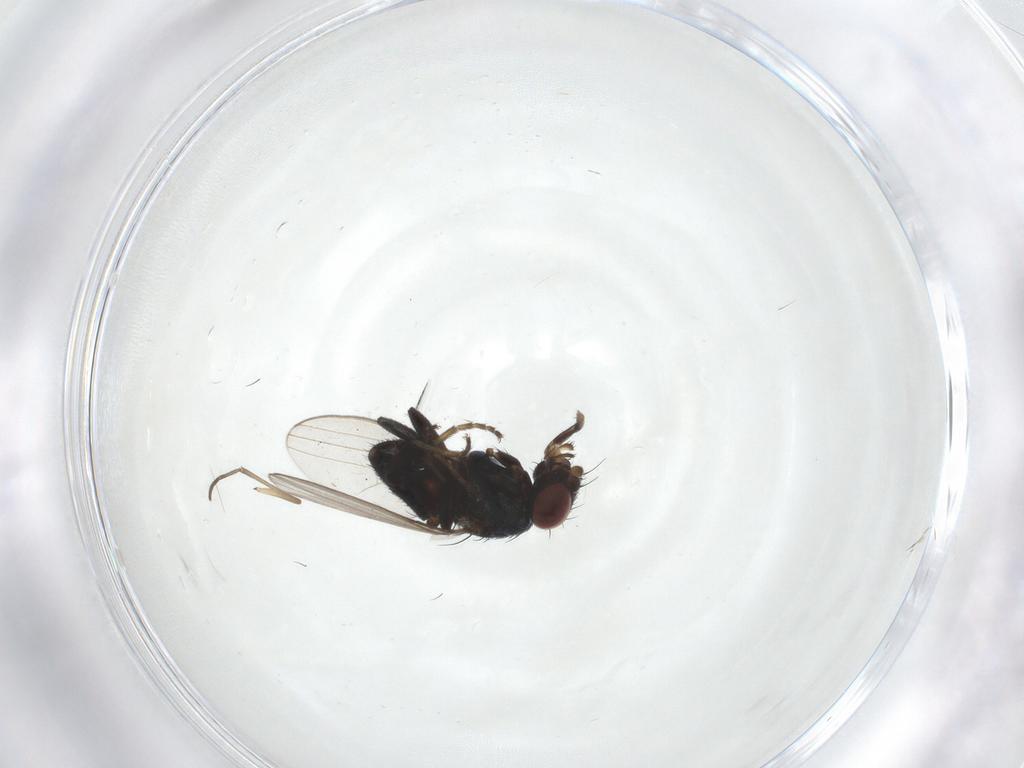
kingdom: Animalia
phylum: Arthropoda
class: Insecta
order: Diptera
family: Chloropidae
